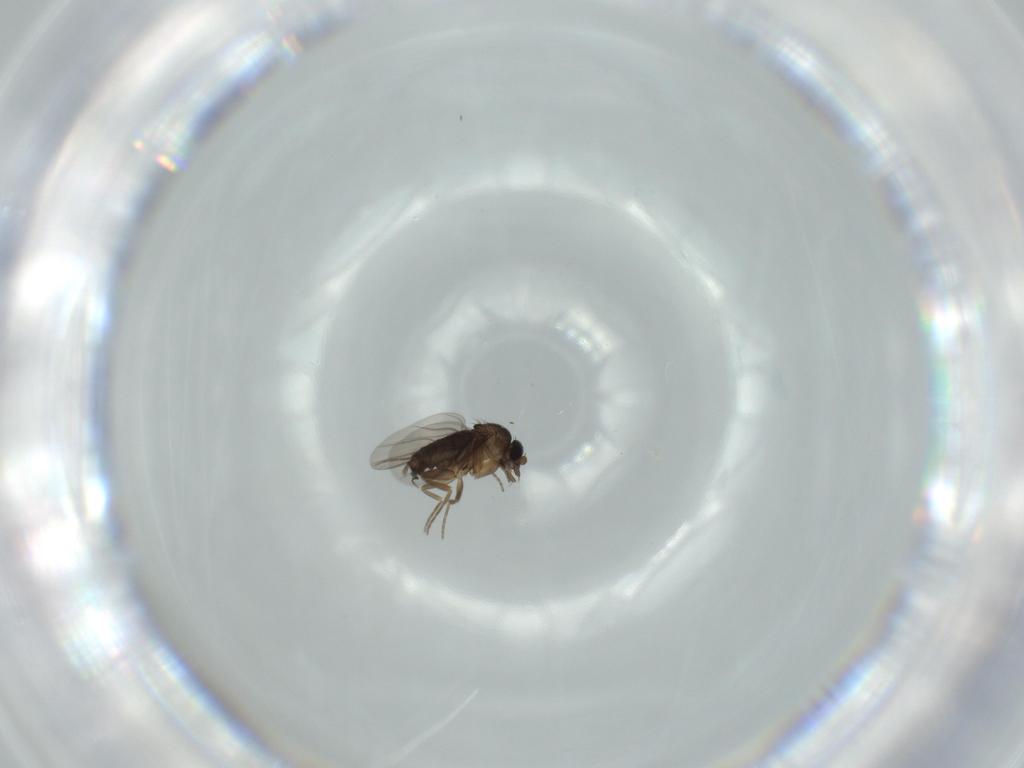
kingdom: Animalia
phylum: Arthropoda
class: Insecta
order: Diptera
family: Phoridae
